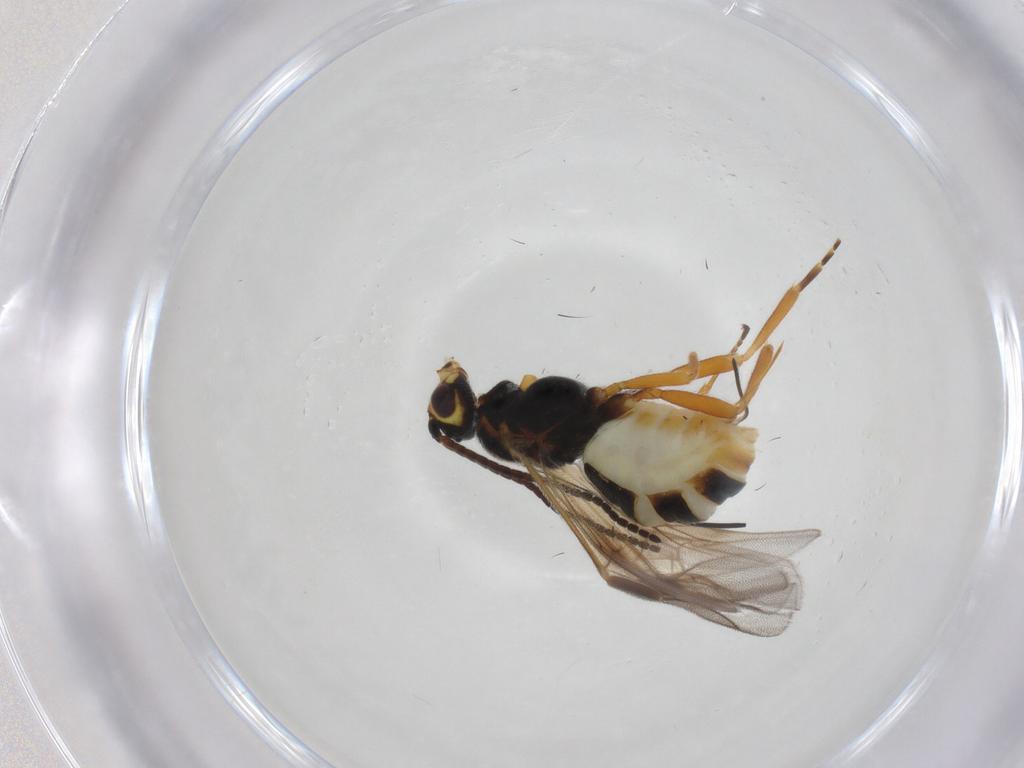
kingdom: Animalia
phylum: Arthropoda
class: Insecta
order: Hymenoptera
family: Braconidae
